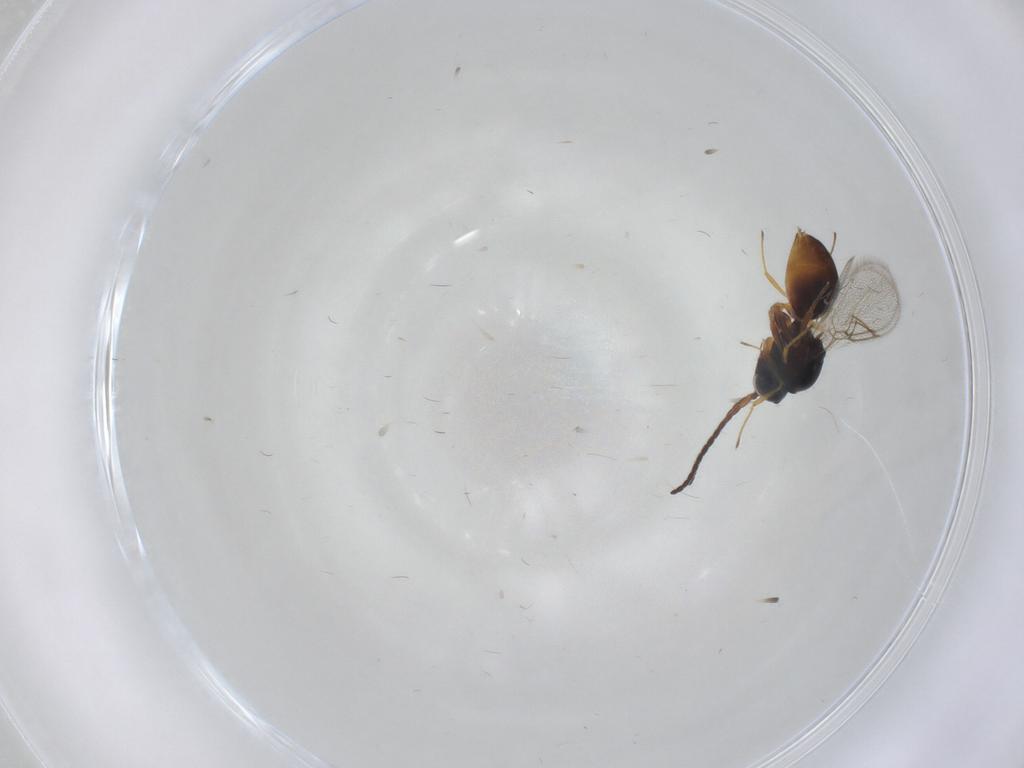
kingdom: Animalia
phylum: Arthropoda
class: Insecta
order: Hymenoptera
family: Figitidae
